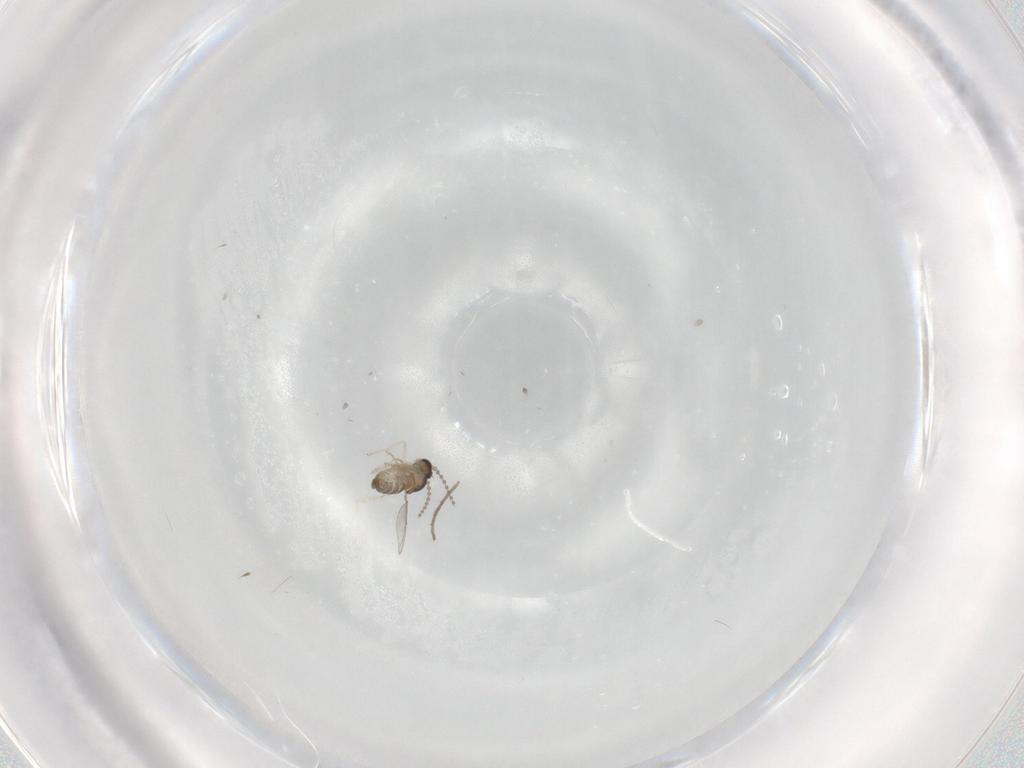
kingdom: Animalia
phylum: Arthropoda
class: Insecta
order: Diptera
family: Cecidomyiidae
